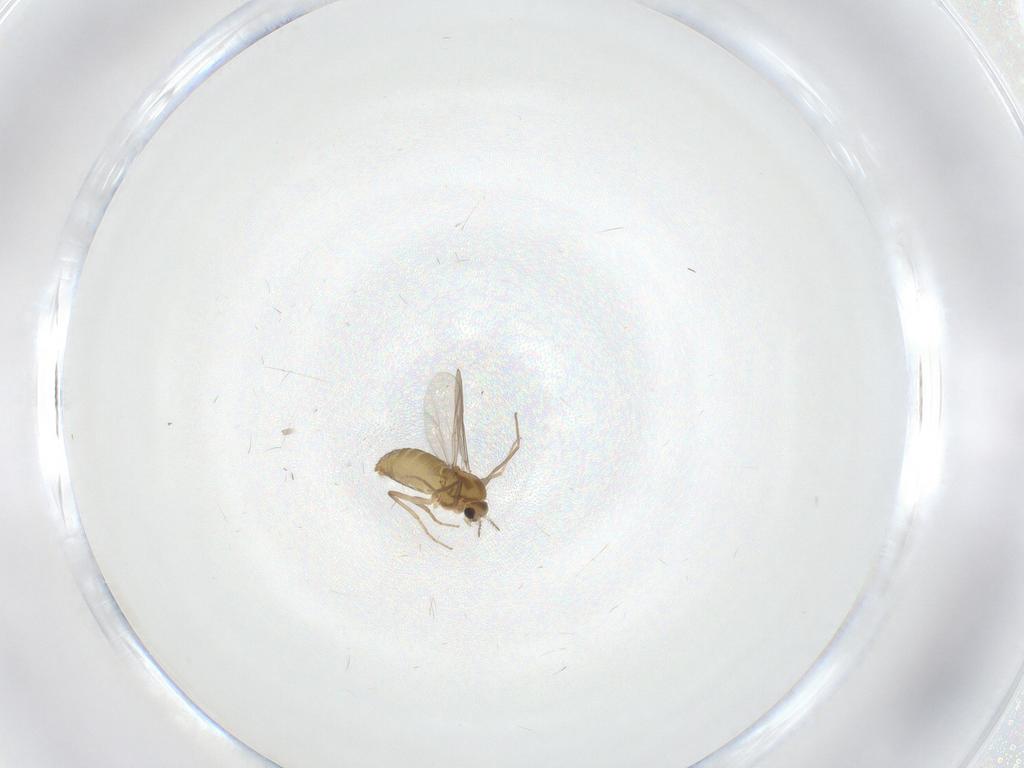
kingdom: Animalia
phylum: Arthropoda
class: Insecta
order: Diptera
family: Chironomidae
